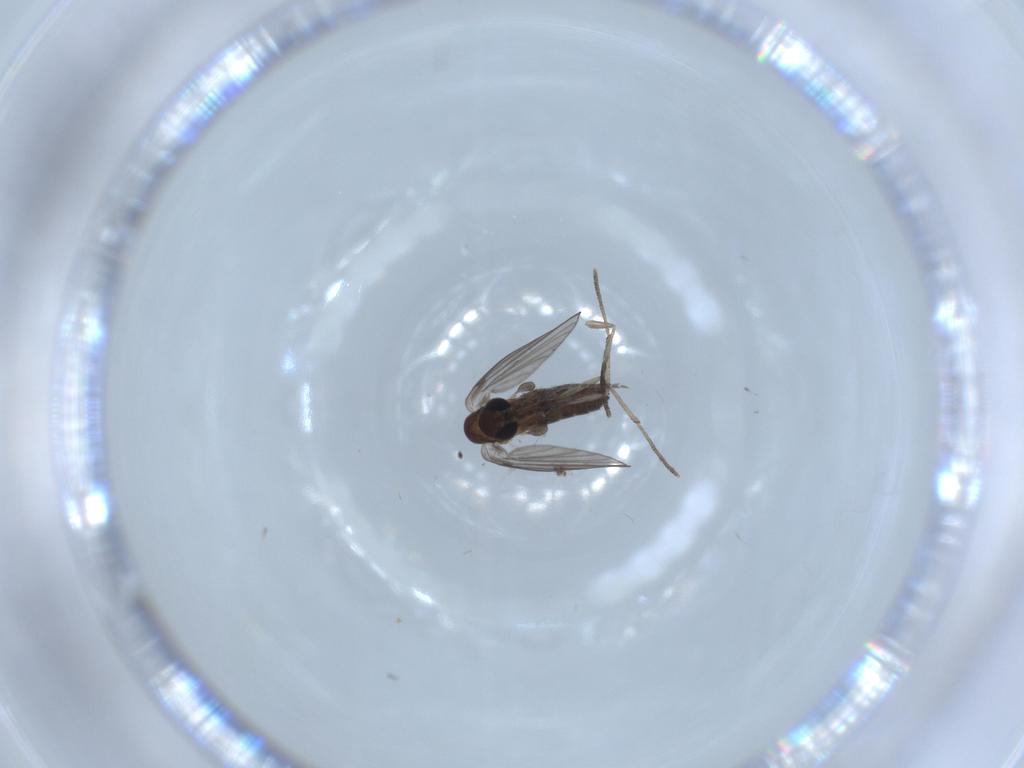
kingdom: Animalia
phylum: Arthropoda
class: Insecta
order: Diptera
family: Psychodidae
